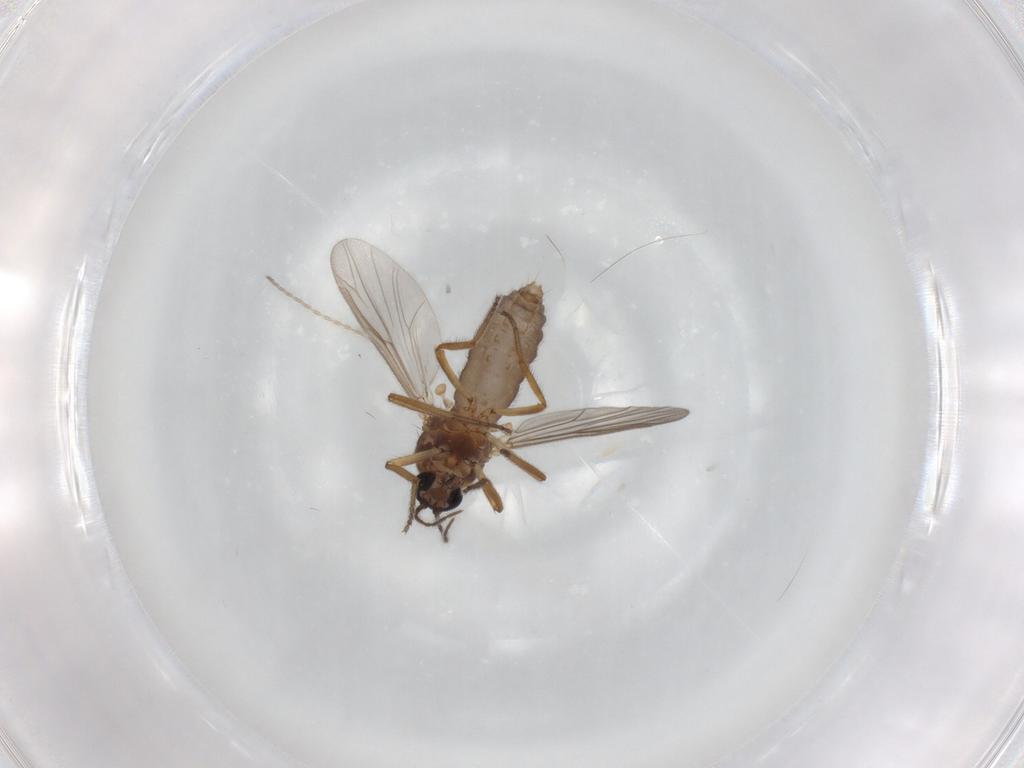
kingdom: Animalia
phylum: Arthropoda
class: Insecta
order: Diptera
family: Ceratopogonidae
